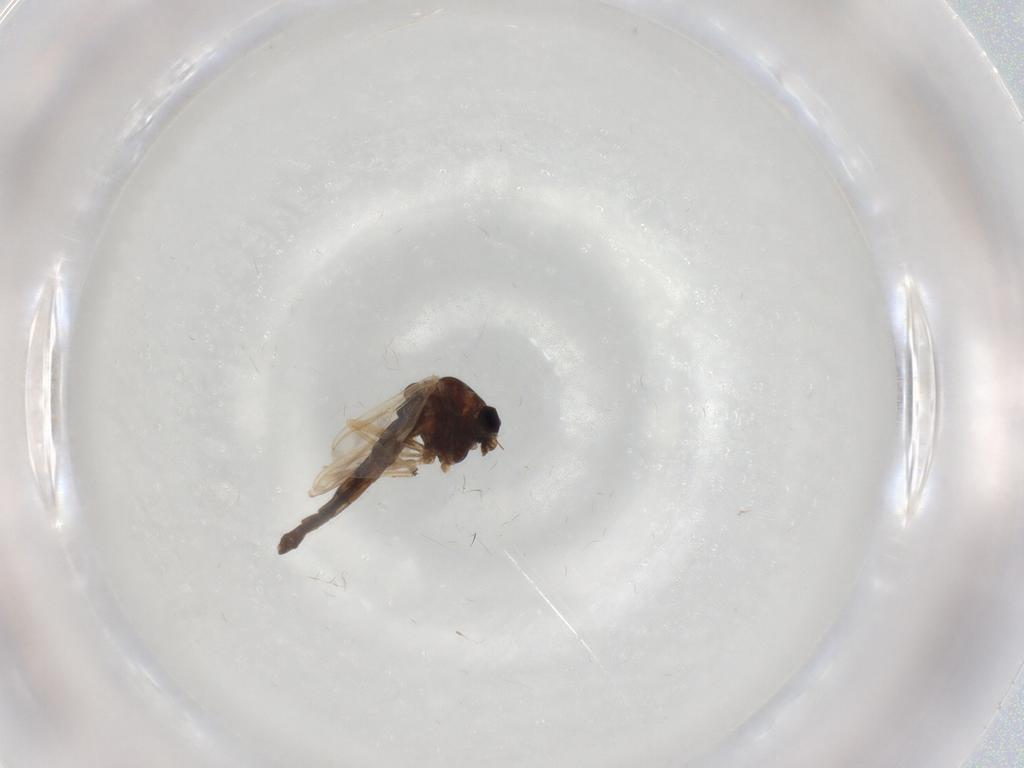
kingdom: Animalia
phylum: Arthropoda
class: Insecta
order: Diptera
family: Chironomidae
